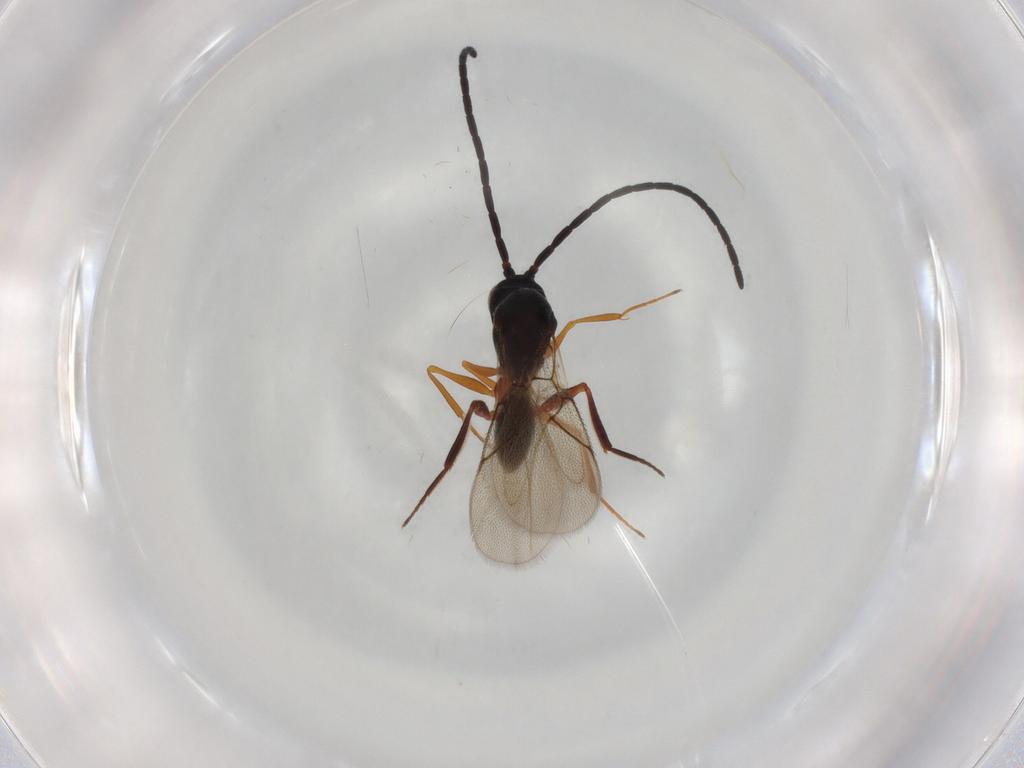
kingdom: Animalia
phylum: Arthropoda
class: Insecta
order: Hymenoptera
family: Figitidae
